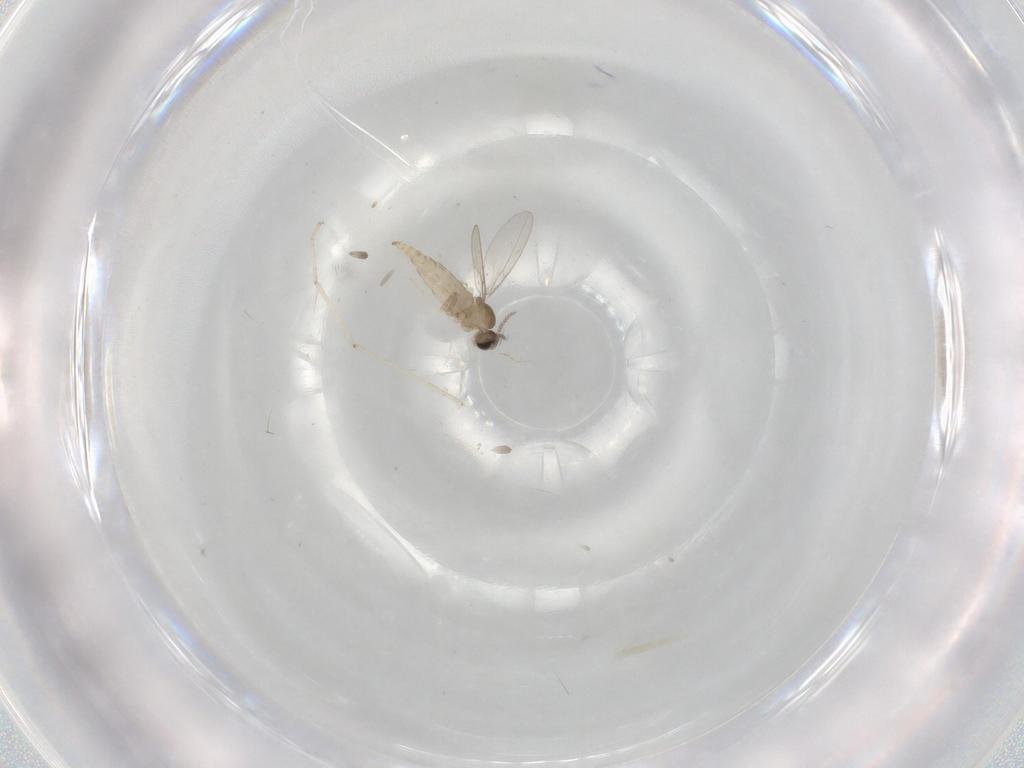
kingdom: Animalia
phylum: Arthropoda
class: Insecta
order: Diptera
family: Cecidomyiidae
